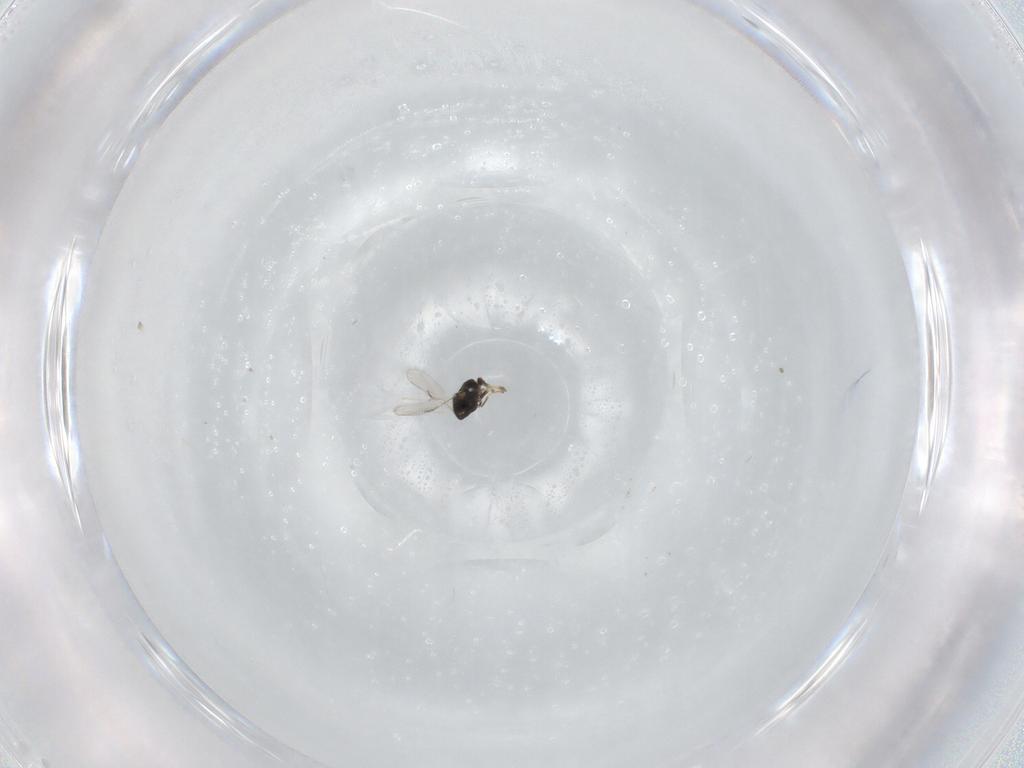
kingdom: Animalia
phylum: Arthropoda
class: Insecta
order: Hymenoptera
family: Aphelinidae
